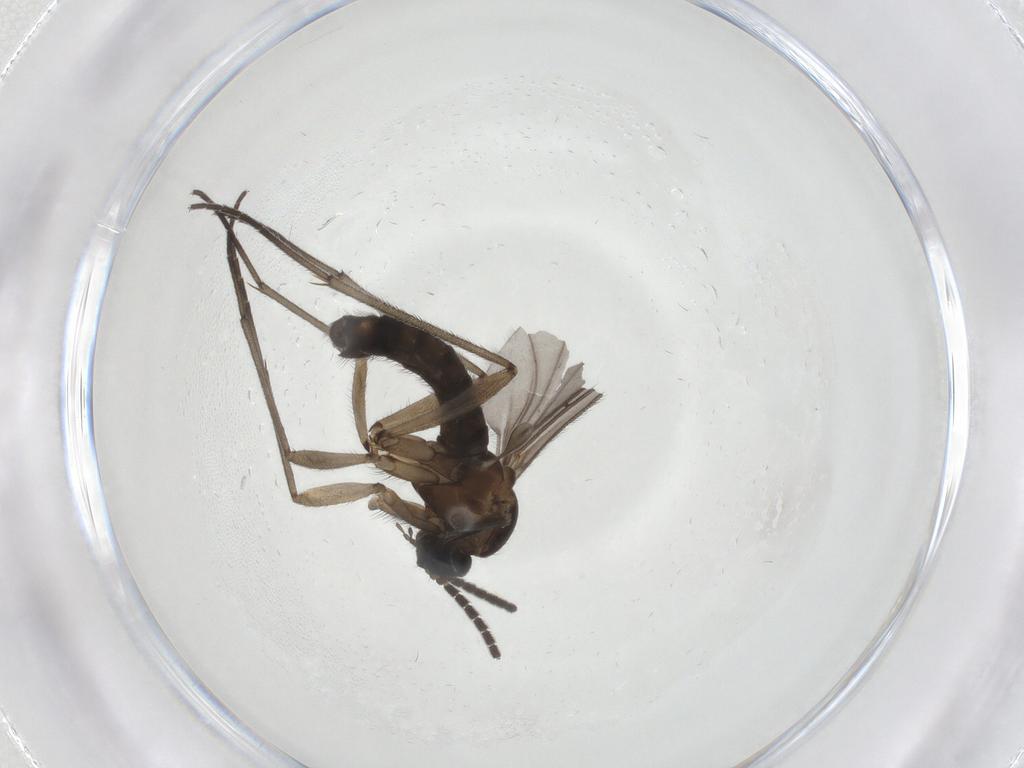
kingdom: Animalia
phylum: Arthropoda
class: Insecta
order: Diptera
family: Sciaridae
